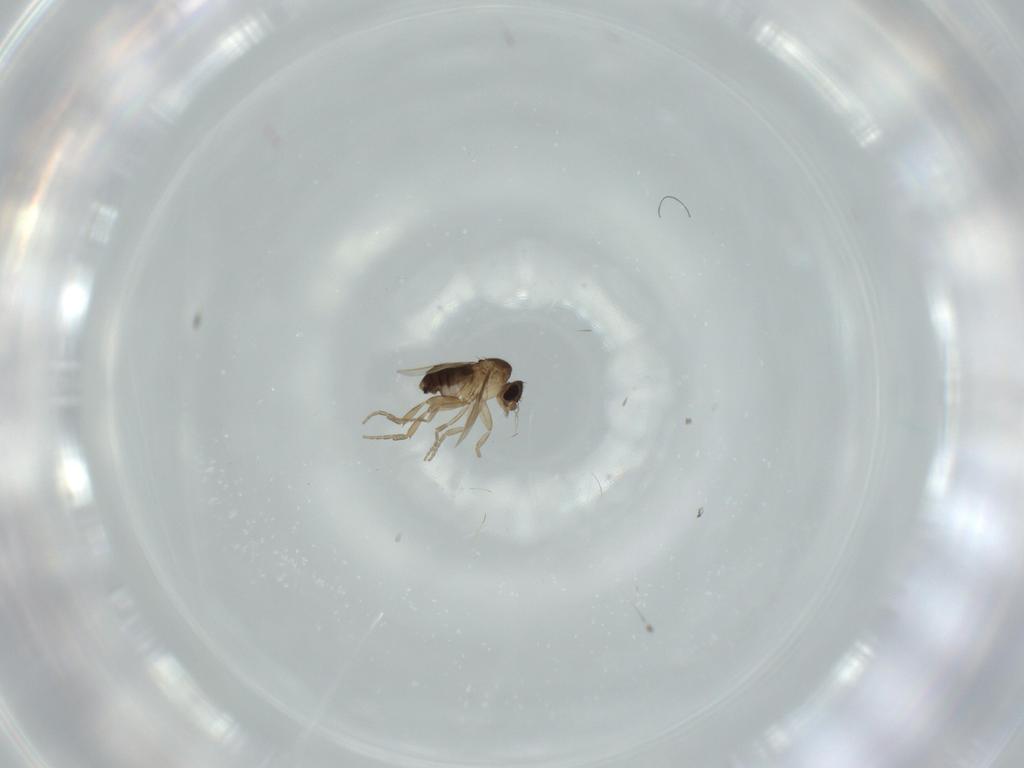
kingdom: Animalia
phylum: Arthropoda
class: Insecta
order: Diptera
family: Phoridae
